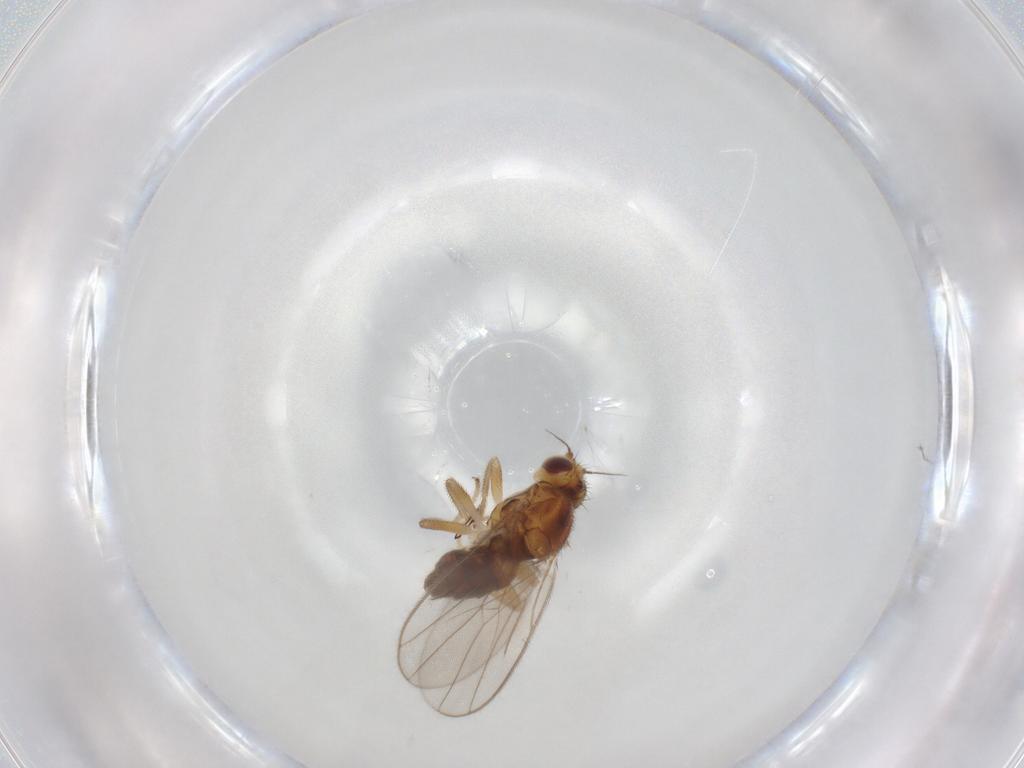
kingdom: Animalia
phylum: Arthropoda
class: Insecta
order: Diptera
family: Chloropidae
